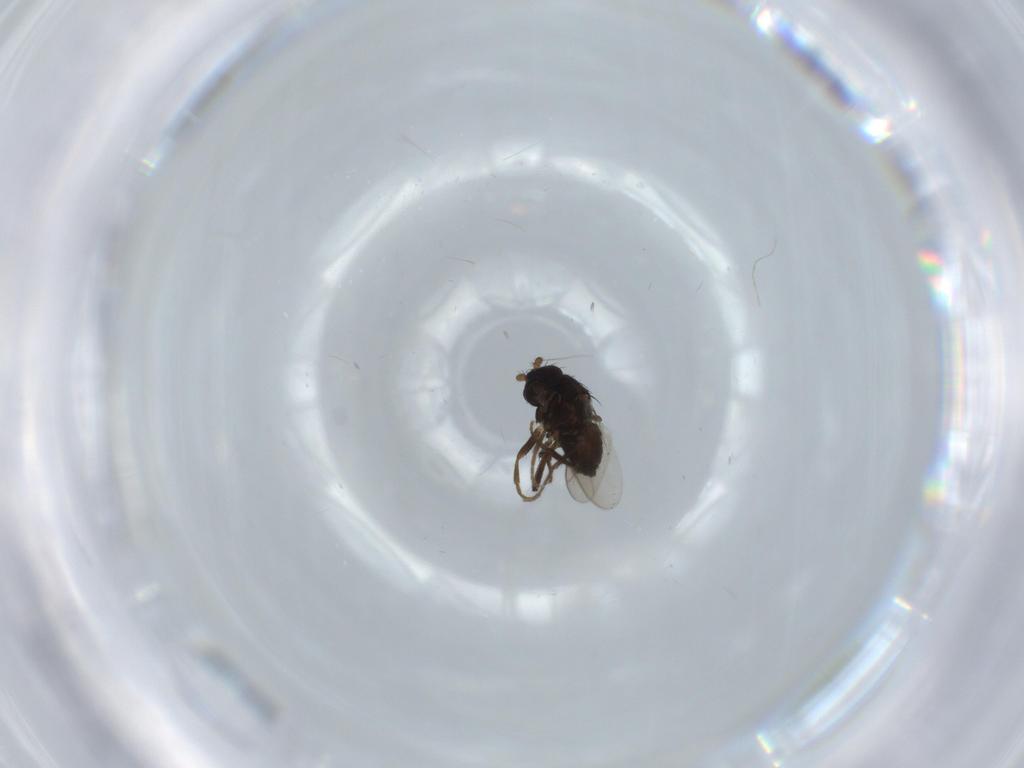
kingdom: Animalia
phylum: Arthropoda
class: Insecta
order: Diptera
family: Sphaeroceridae
